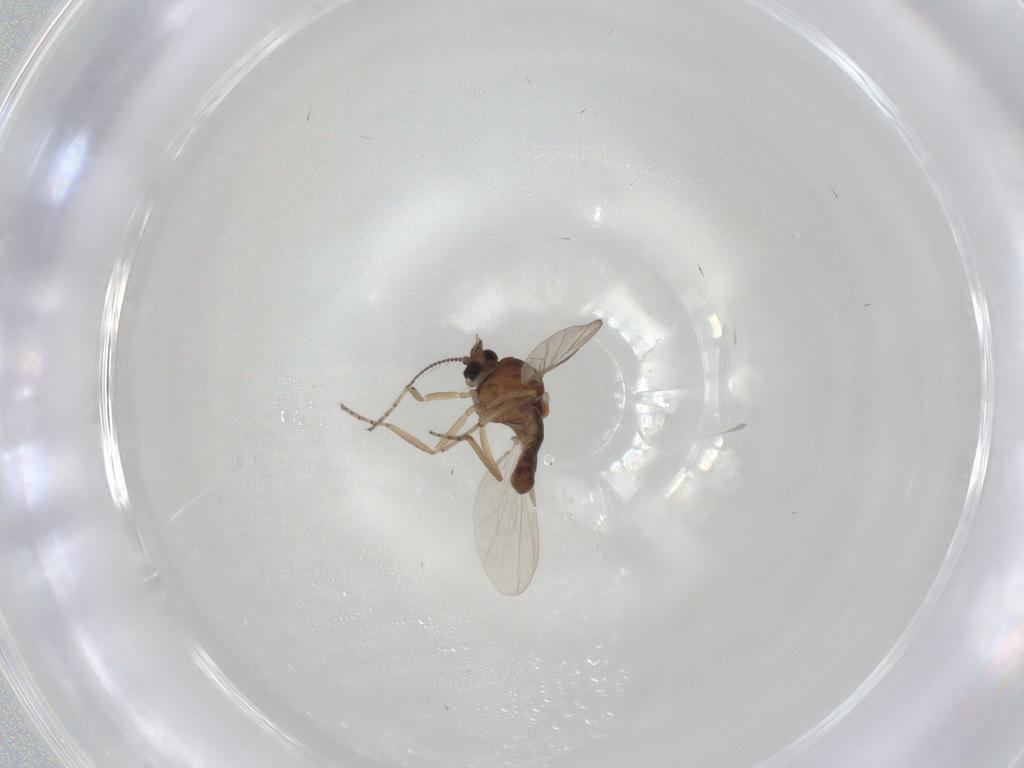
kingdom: Animalia
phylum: Arthropoda
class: Insecta
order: Diptera
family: Ceratopogonidae
